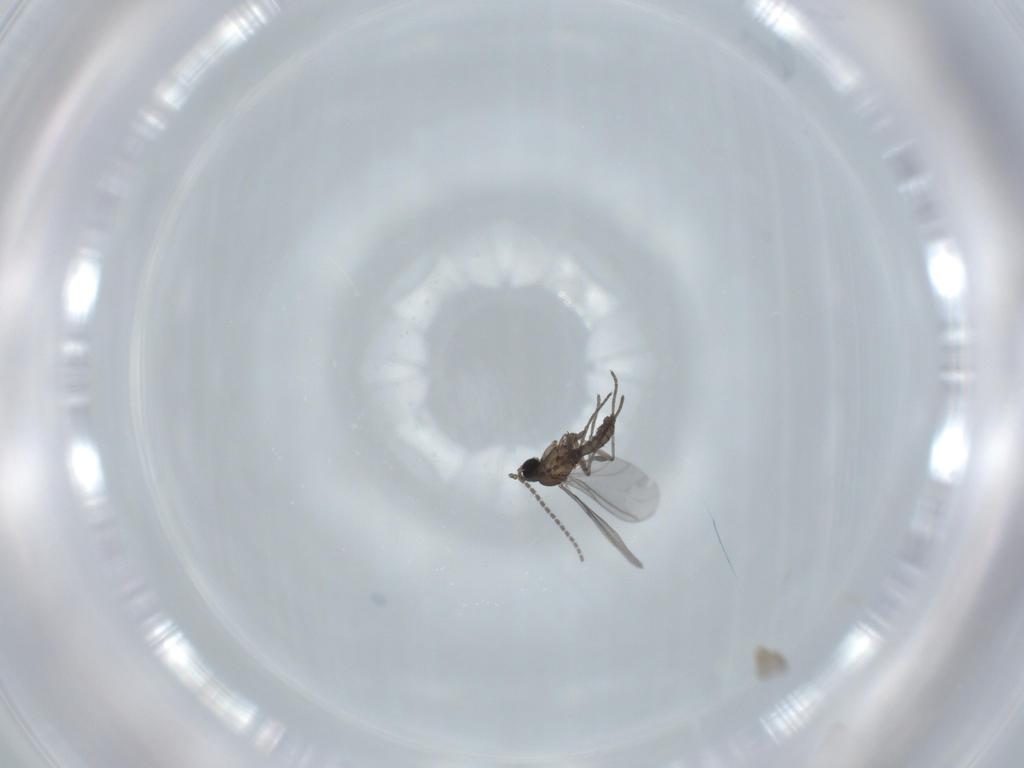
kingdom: Animalia
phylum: Arthropoda
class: Insecta
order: Diptera
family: Sciaridae
